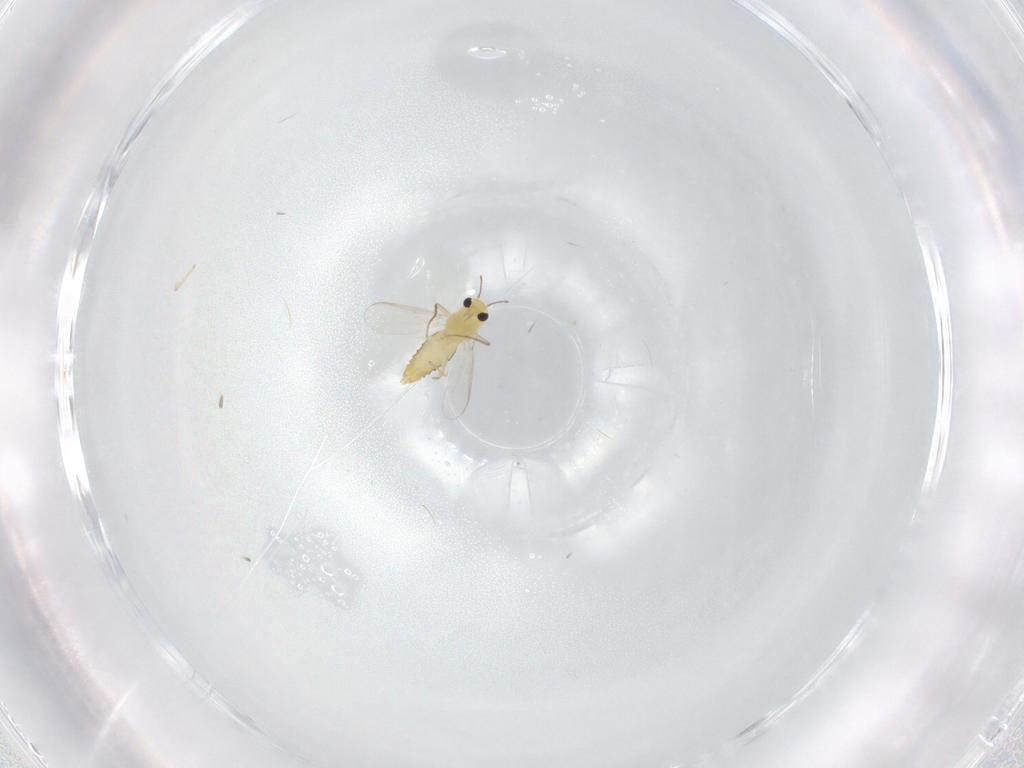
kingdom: Animalia
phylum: Arthropoda
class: Insecta
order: Diptera
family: Chironomidae
